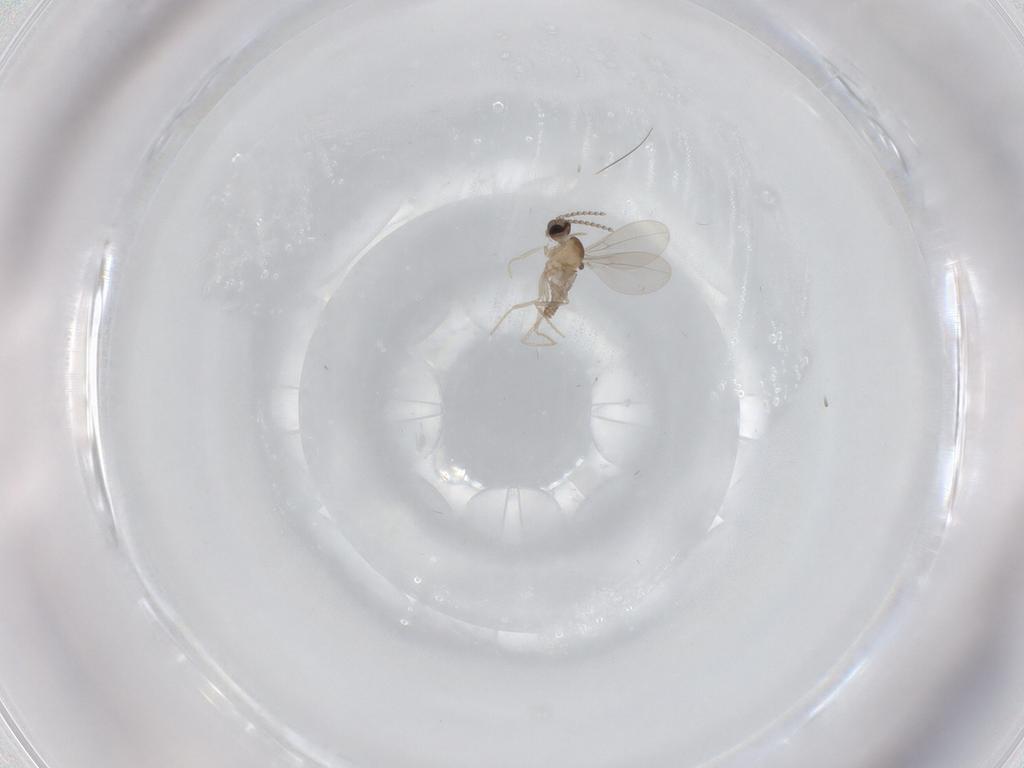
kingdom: Animalia
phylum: Arthropoda
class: Insecta
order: Diptera
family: Cecidomyiidae
